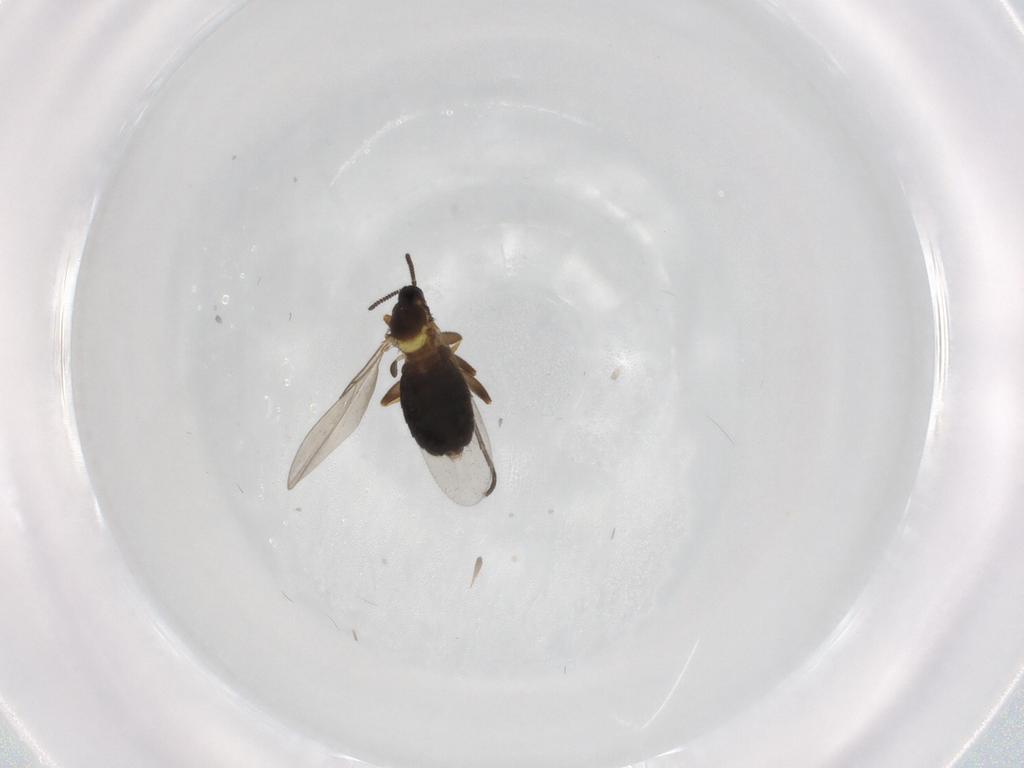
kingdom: Animalia
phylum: Arthropoda
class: Insecta
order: Diptera
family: Scatopsidae
